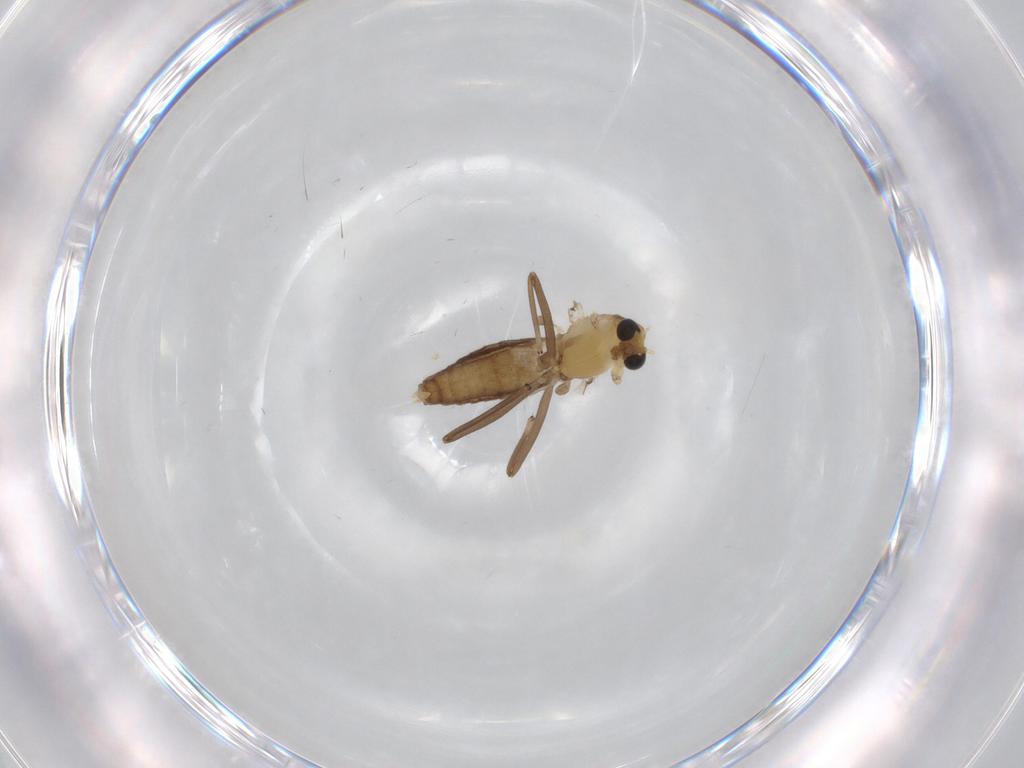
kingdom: Animalia
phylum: Arthropoda
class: Insecta
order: Diptera
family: Chironomidae
